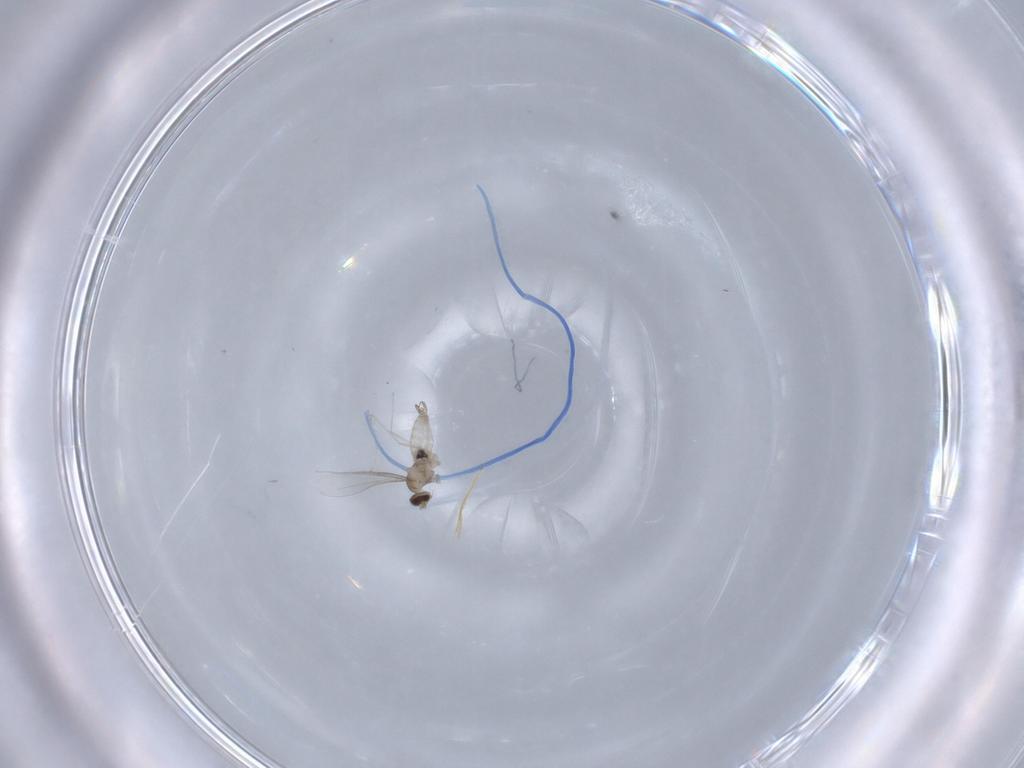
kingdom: Animalia
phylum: Arthropoda
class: Insecta
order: Diptera
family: Cecidomyiidae
